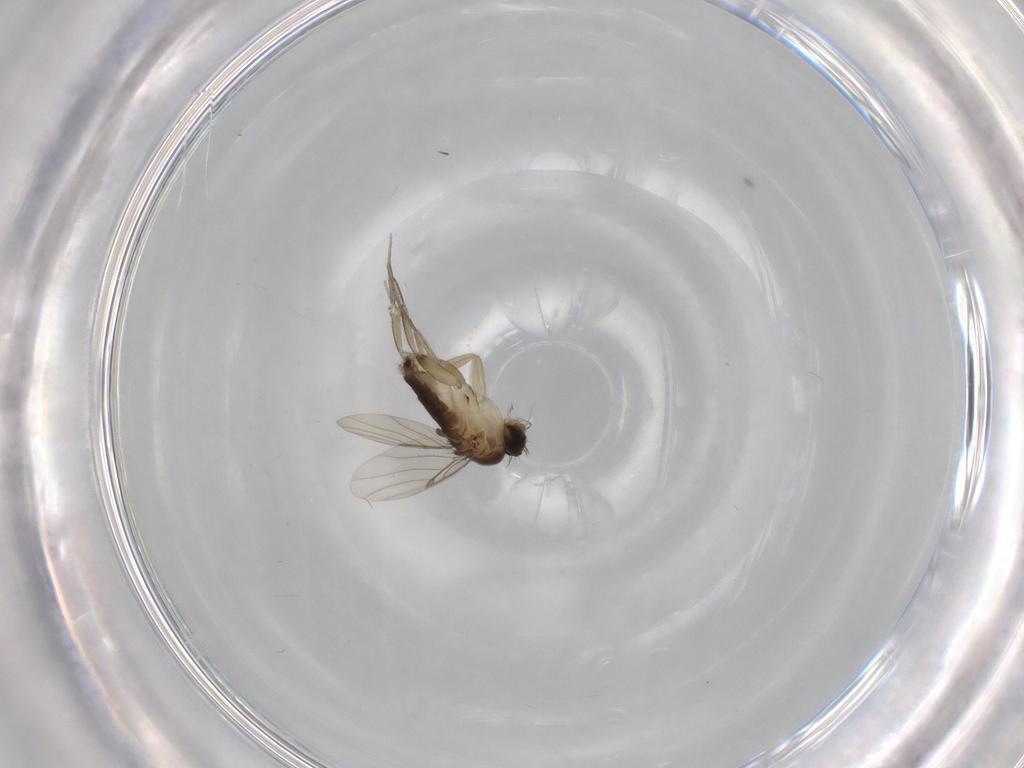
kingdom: Animalia
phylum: Arthropoda
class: Insecta
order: Diptera
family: Phoridae
